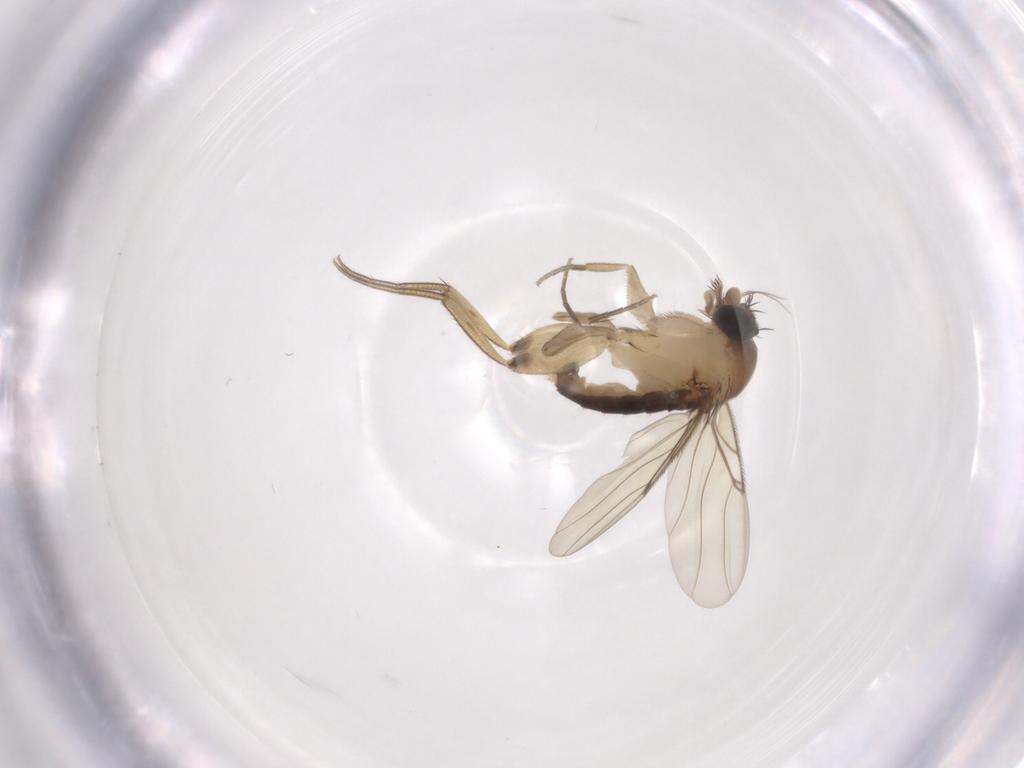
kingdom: Animalia
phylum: Arthropoda
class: Insecta
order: Diptera
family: Phoridae
